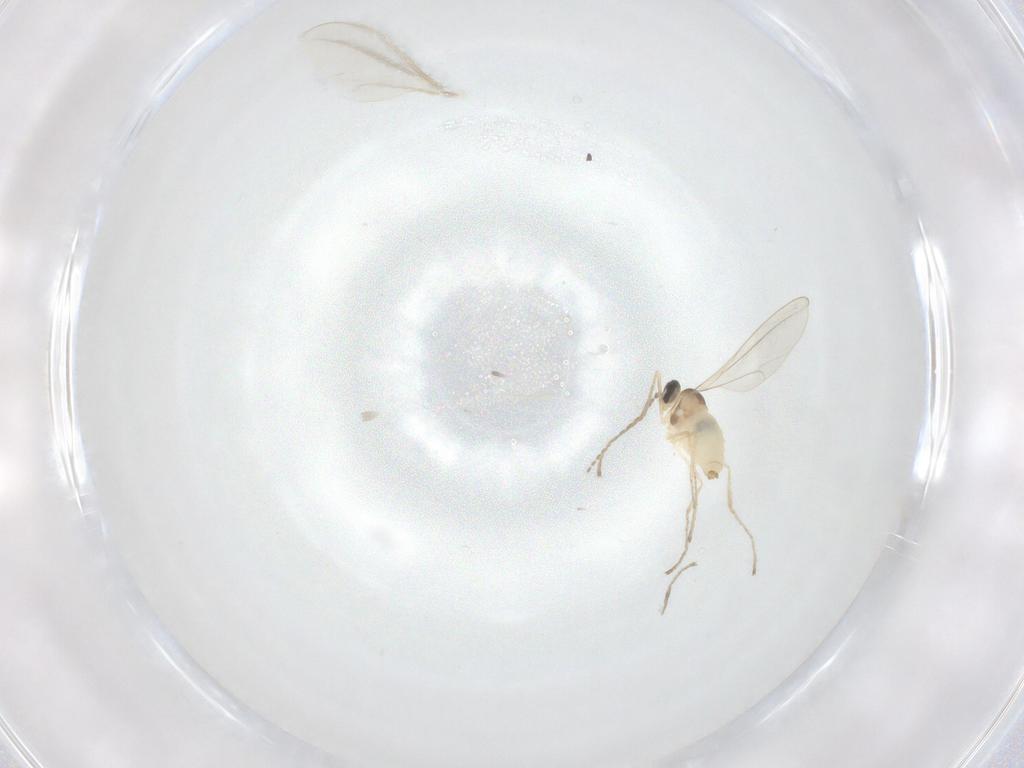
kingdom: Animalia
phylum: Arthropoda
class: Insecta
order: Diptera
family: Cecidomyiidae
